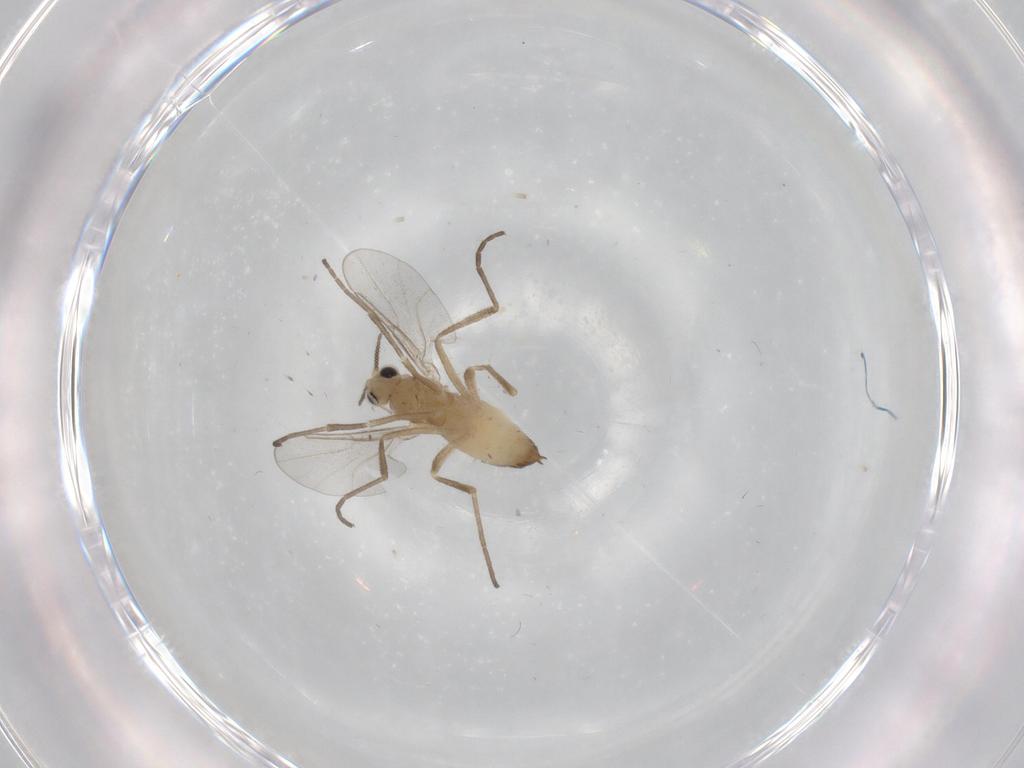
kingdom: Animalia
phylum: Arthropoda
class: Insecta
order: Diptera
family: Cecidomyiidae
